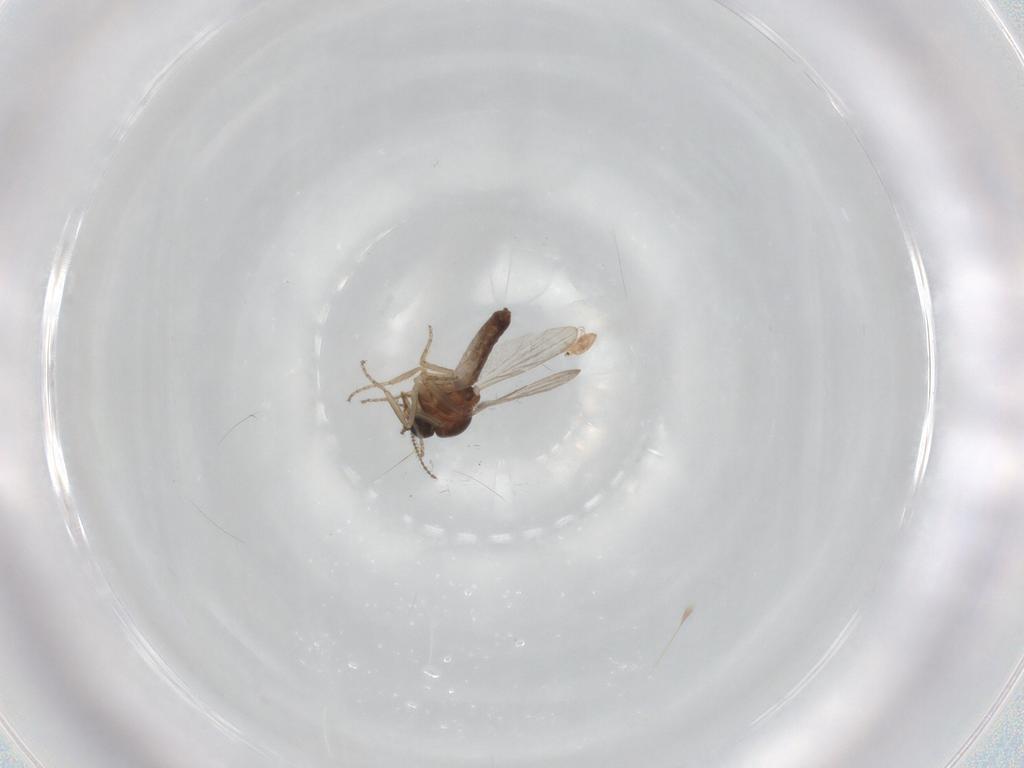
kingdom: Animalia
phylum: Arthropoda
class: Insecta
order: Diptera
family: Ceratopogonidae
